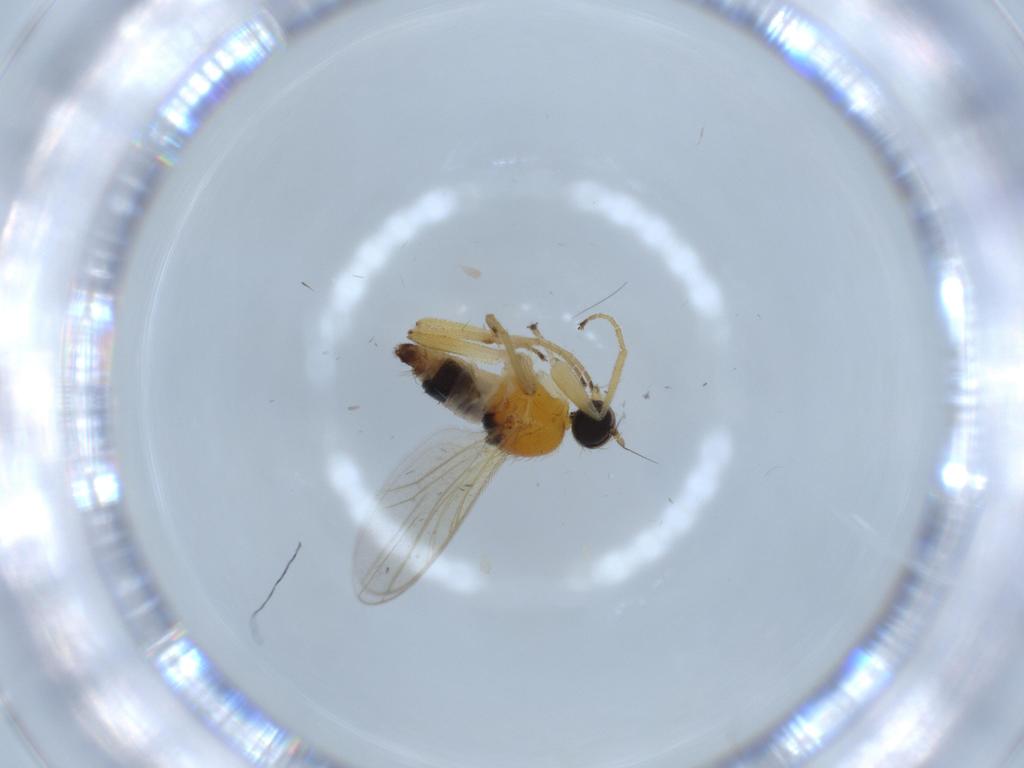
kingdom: Animalia
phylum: Arthropoda
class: Insecta
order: Diptera
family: Hybotidae
